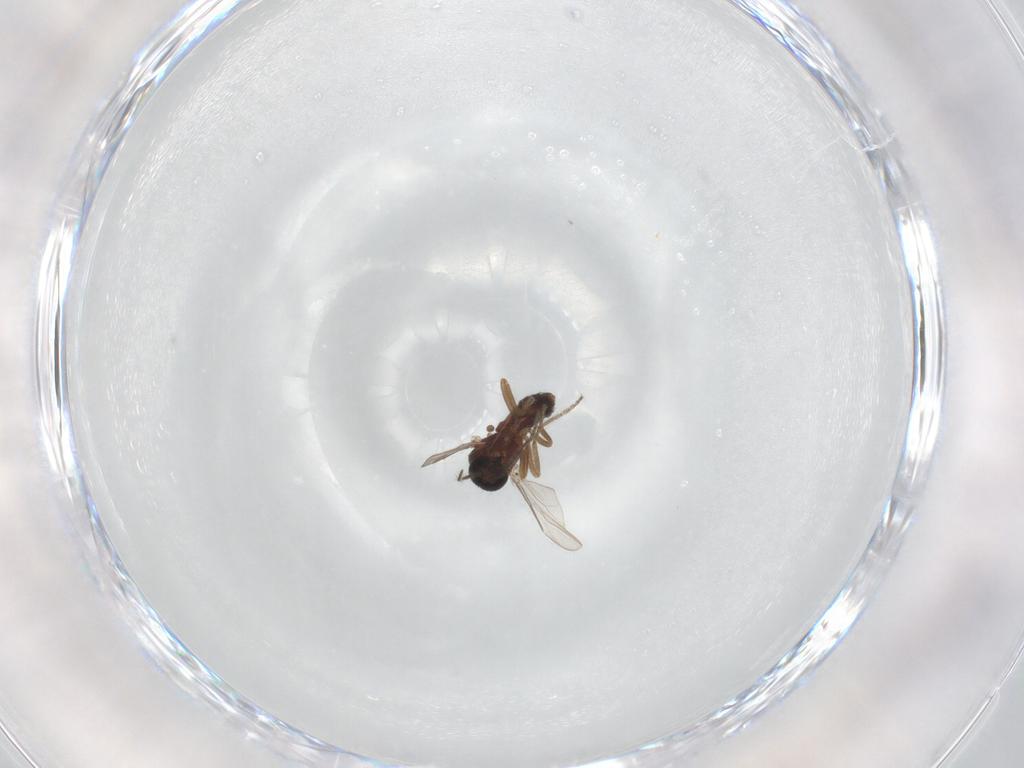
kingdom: Animalia
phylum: Arthropoda
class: Insecta
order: Diptera
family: Ceratopogonidae
